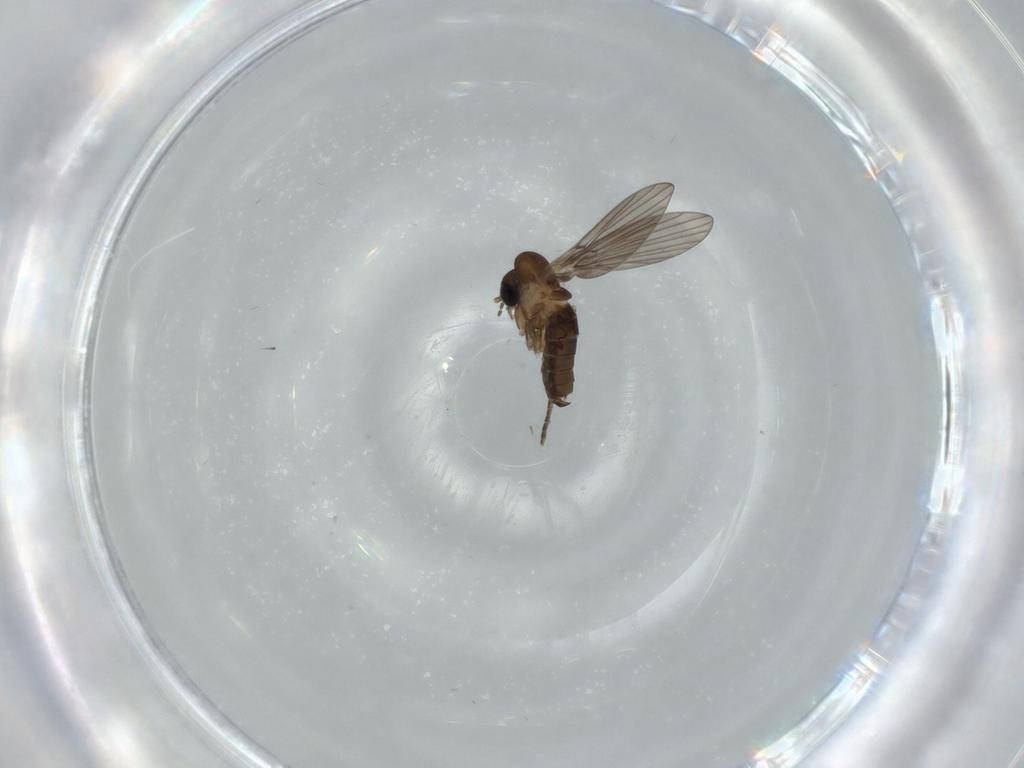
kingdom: Animalia
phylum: Arthropoda
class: Insecta
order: Diptera
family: Psychodidae
